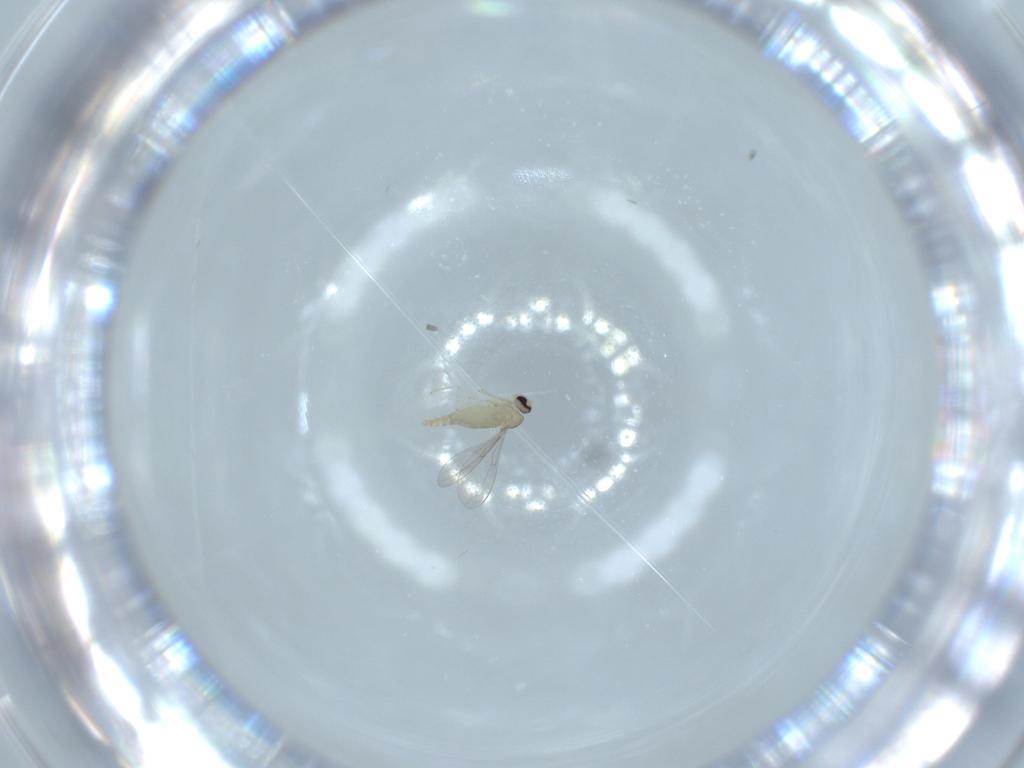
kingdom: Animalia
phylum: Arthropoda
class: Insecta
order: Diptera
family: Cecidomyiidae
